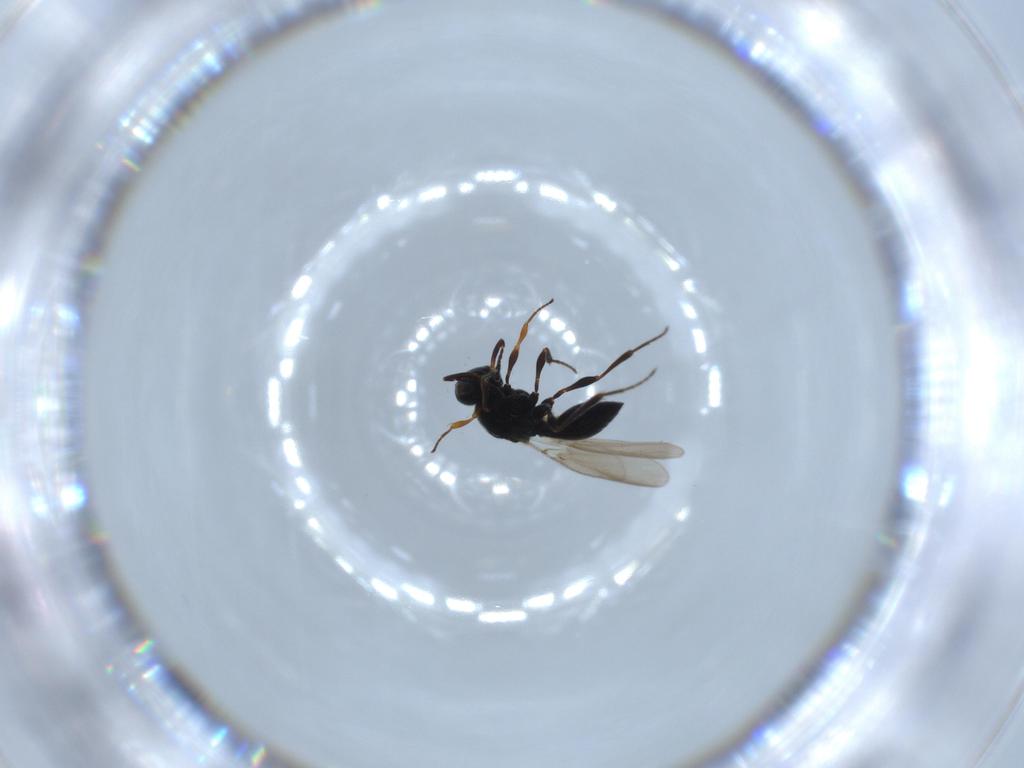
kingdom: Animalia
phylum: Arthropoda
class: Insecta
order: Hymenoptera
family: Platygastridae
